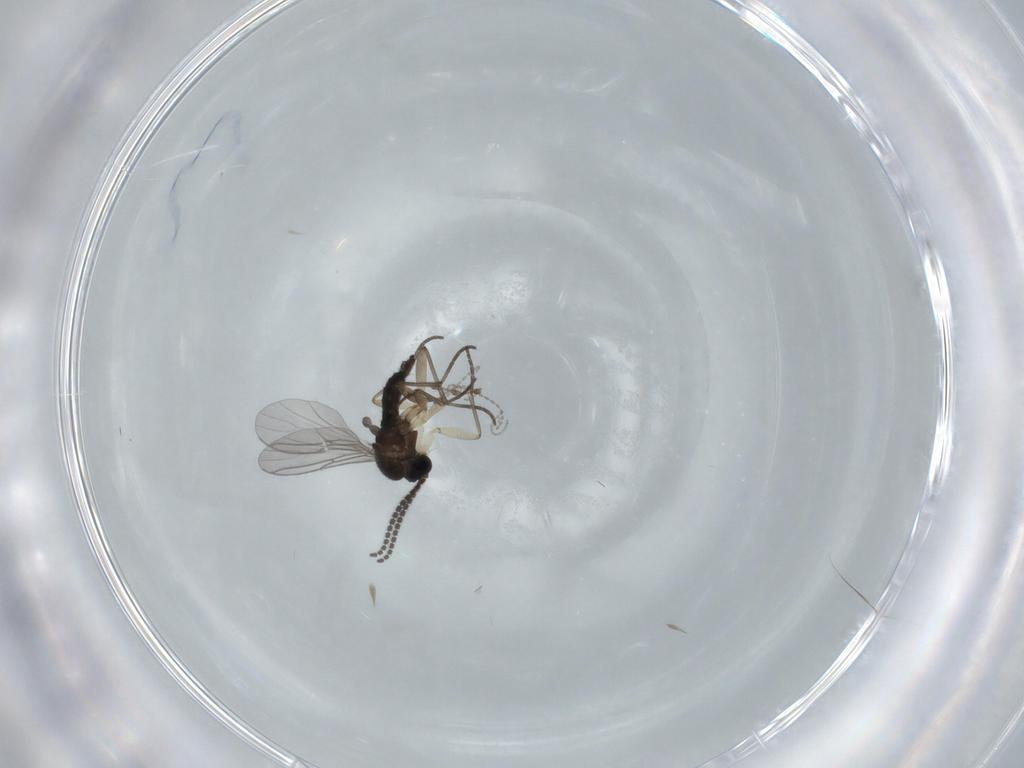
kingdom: Animalia
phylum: Arthropoda
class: Insecta
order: Diptera
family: Sciaridae
